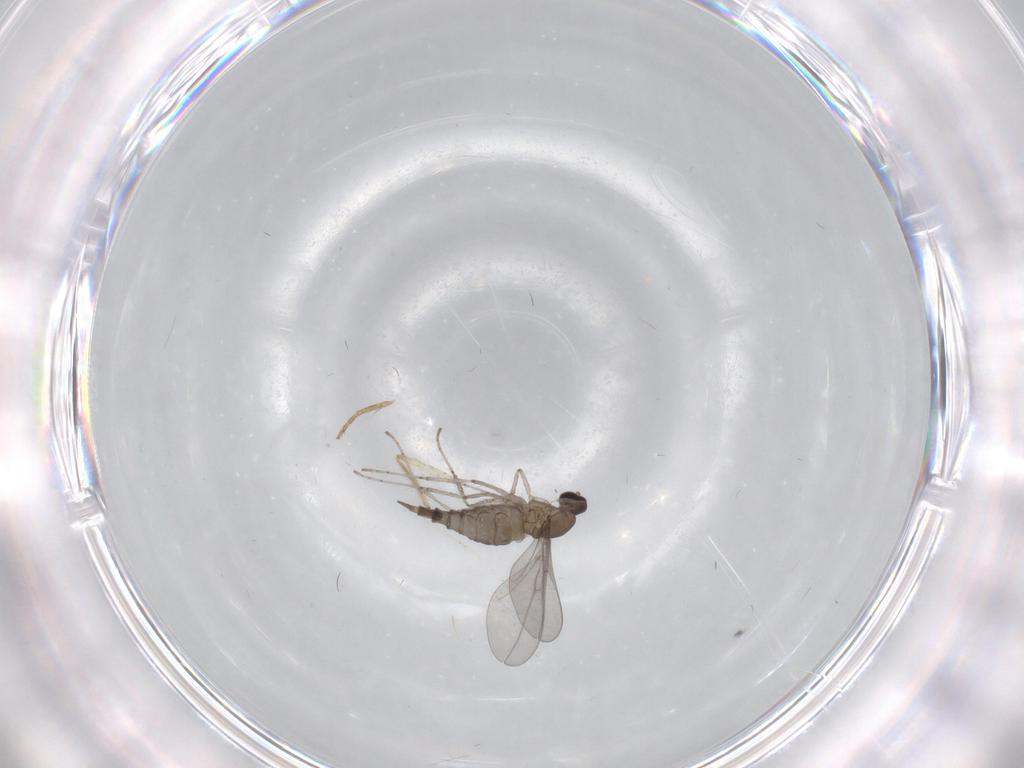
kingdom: Animalia
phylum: Arthropoda
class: Insecta
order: Diptera
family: Cecidomyiidae
